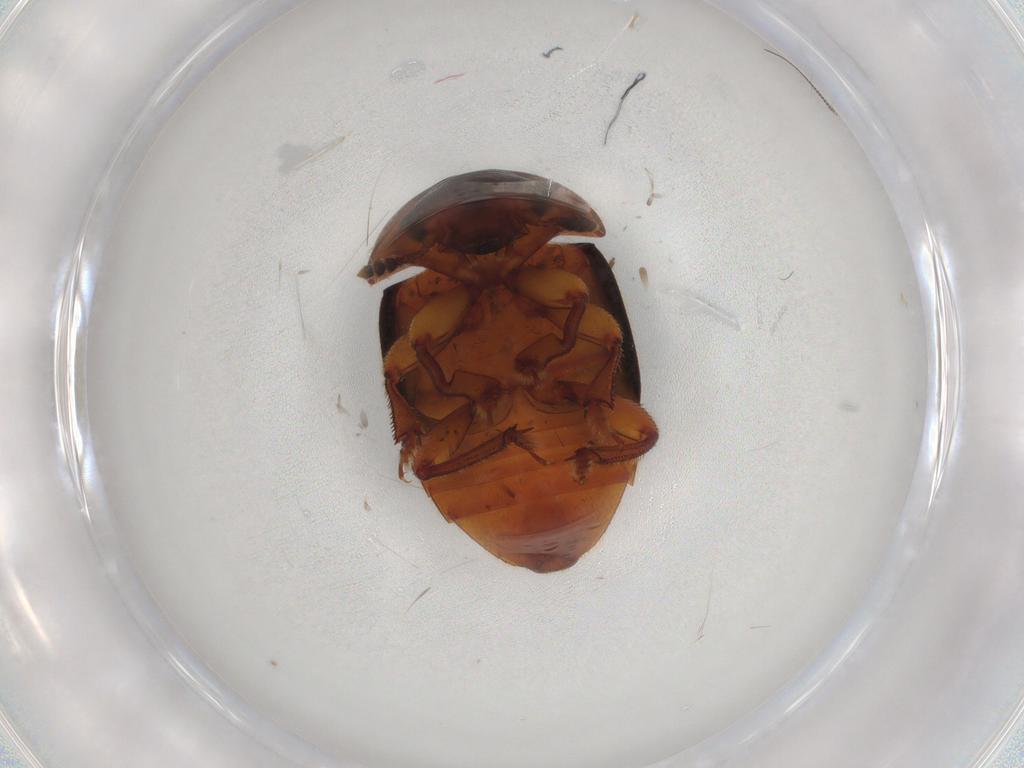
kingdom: Animalia
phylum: Arthropoda
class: Insecta
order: Coleoptera
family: Nitidulidae
